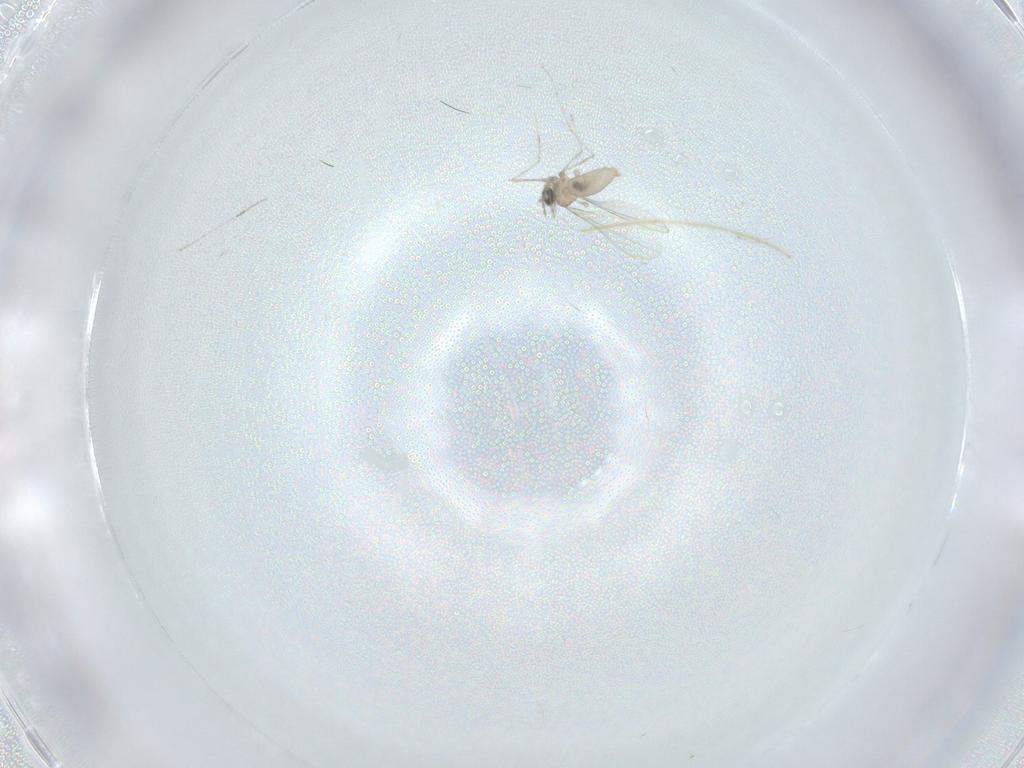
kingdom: Animalia
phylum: Arthropoda
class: Insecta
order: Diptera
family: Cecidomyiidae
